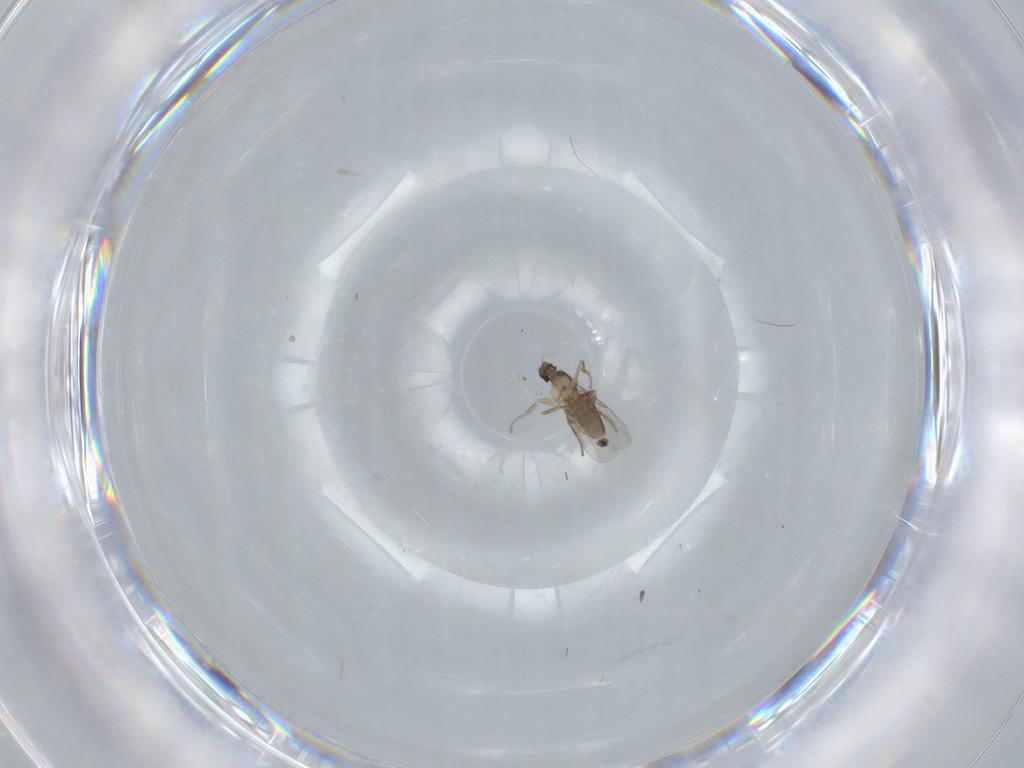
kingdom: Animalia
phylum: Arthropoda
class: Insecta
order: Diptera
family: Phoridae
